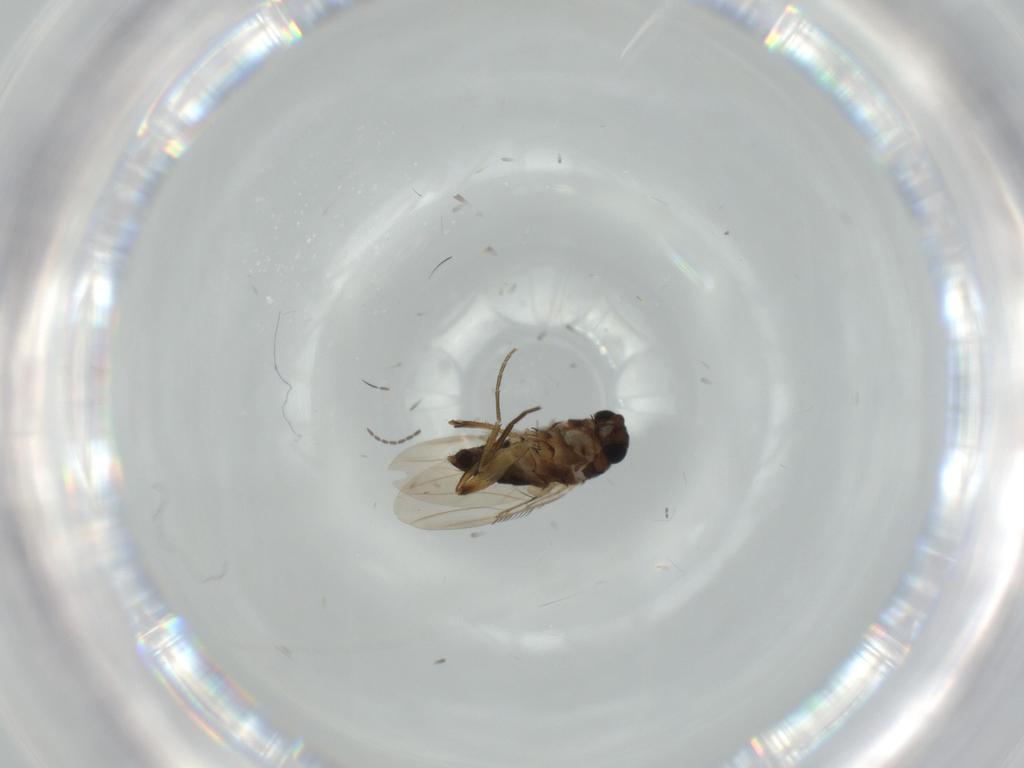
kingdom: Animalia
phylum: Arthropoda
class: Insecta
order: Diptera
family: Phoridae
